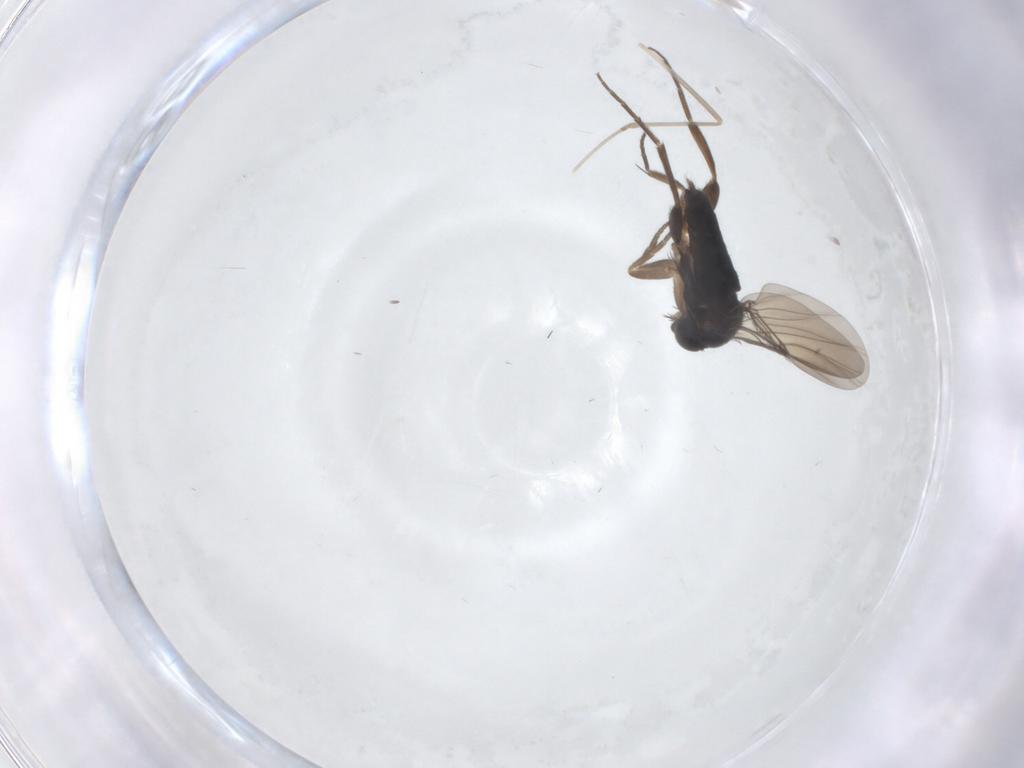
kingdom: Animalia
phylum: Arthropoda
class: Insecta
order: Diptera
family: Phoridae
